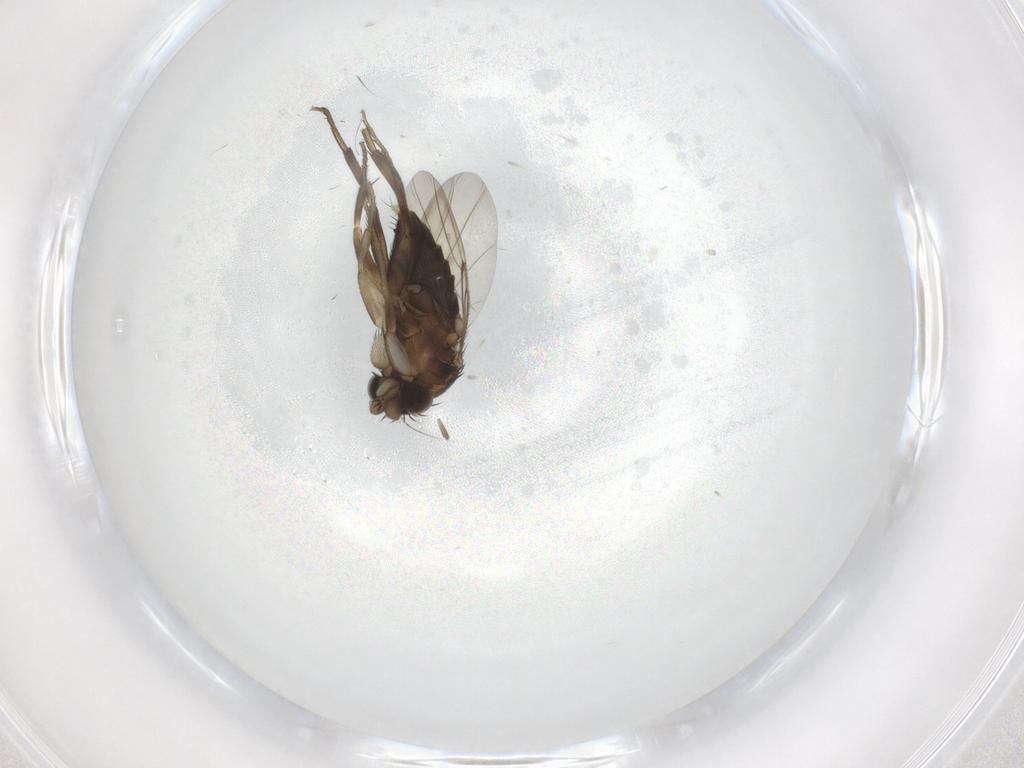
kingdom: Animalia
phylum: Arthropoda
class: Insecta
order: Diptera
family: Phoridae
